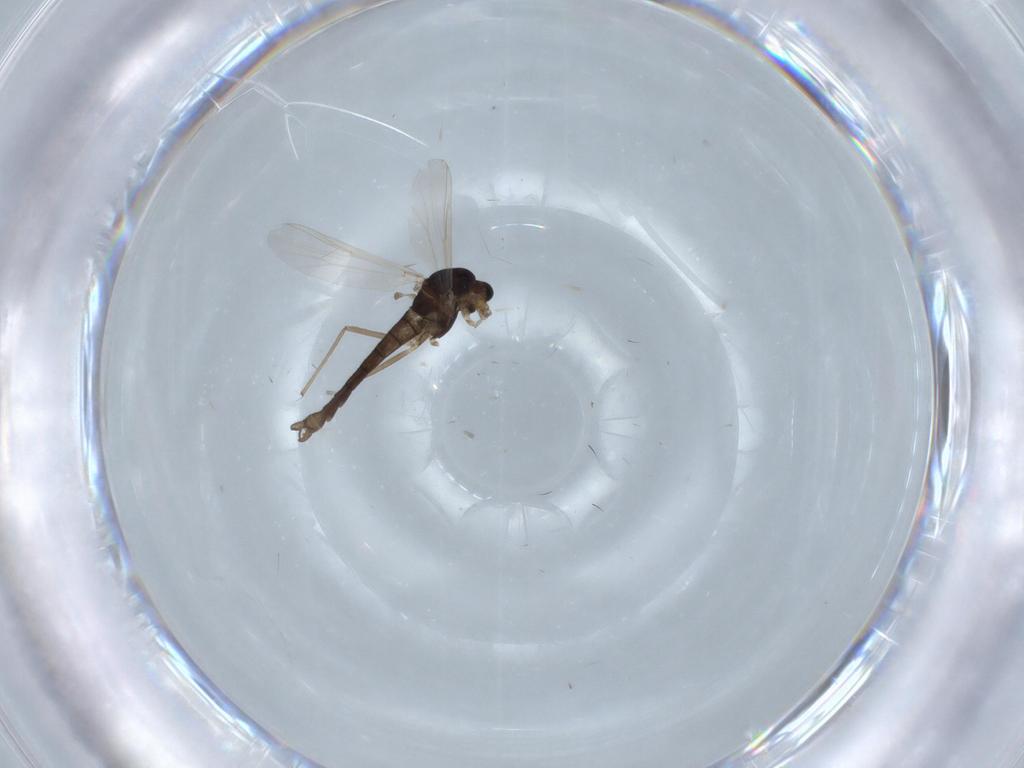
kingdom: Animalia
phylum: Arthropoda
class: Insecta
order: Diptera
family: Chironomidae
